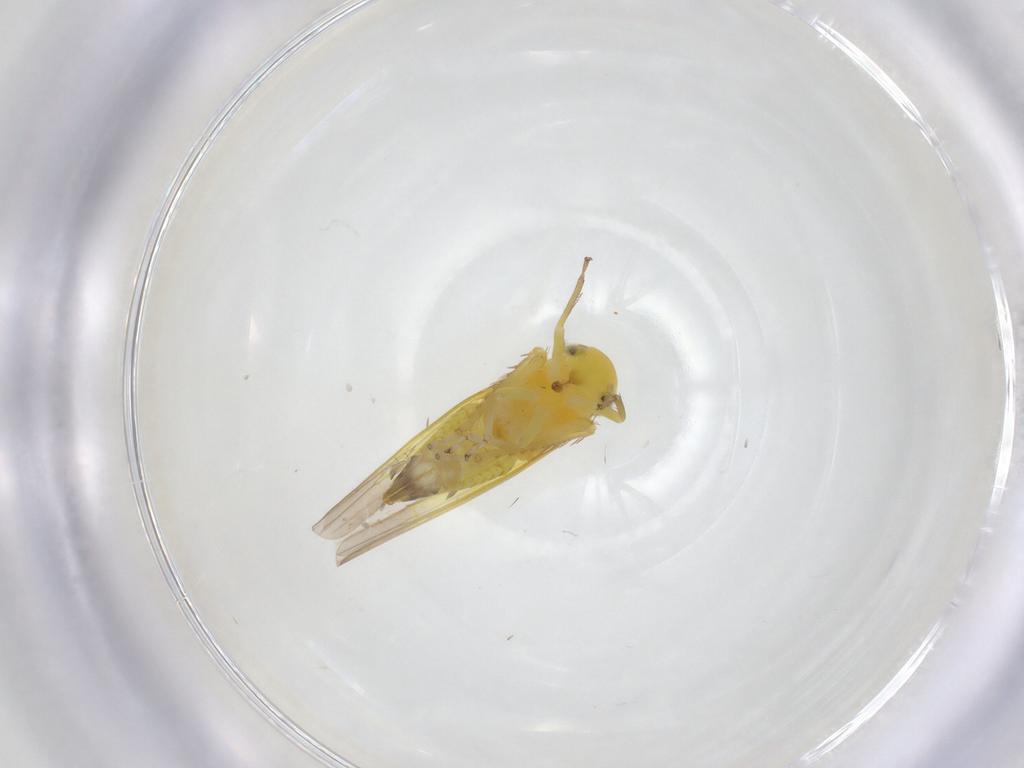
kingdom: Animalia
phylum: Arthropoda
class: Insecta
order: Hemiptera
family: Cicadellidae
